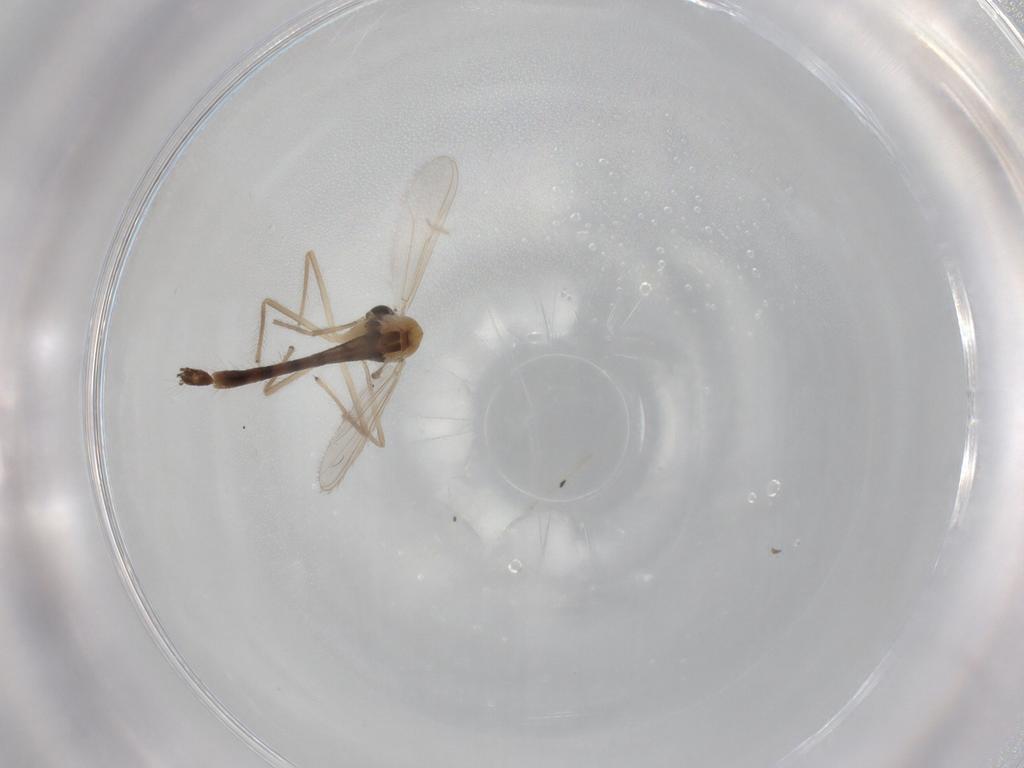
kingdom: Animalia
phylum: Arthropoda
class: Insecta
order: Diptera
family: Chironomidae
